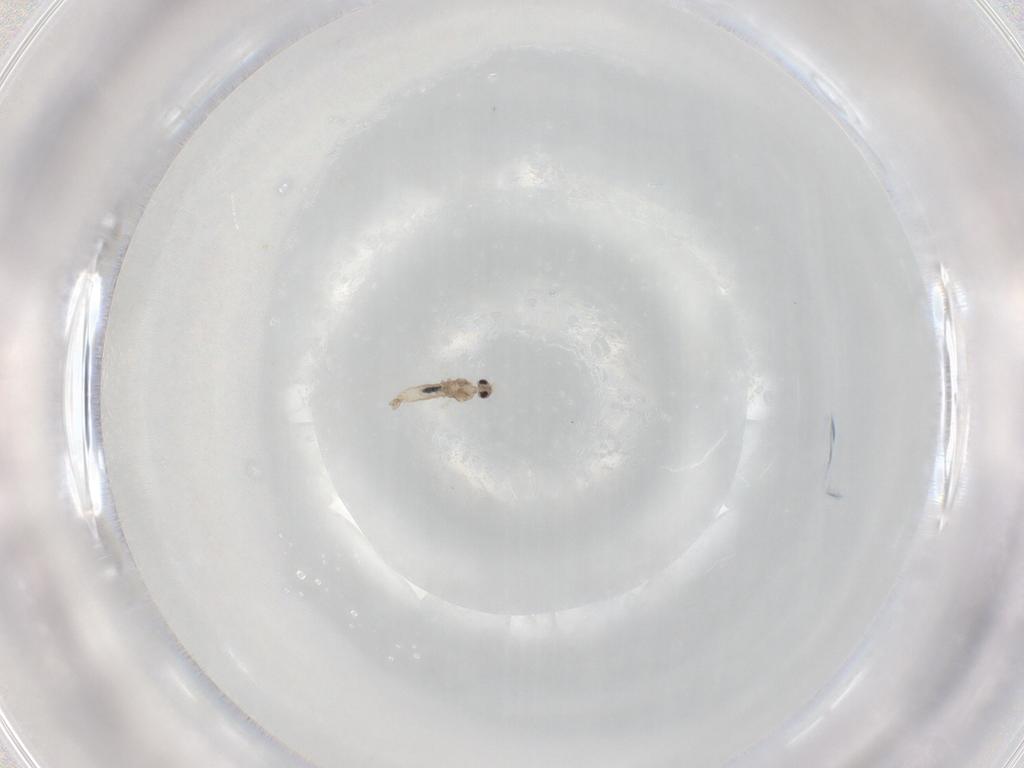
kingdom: Animalia
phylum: Arthropoda
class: Insecta
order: Diptera
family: Cecidomyiidae
